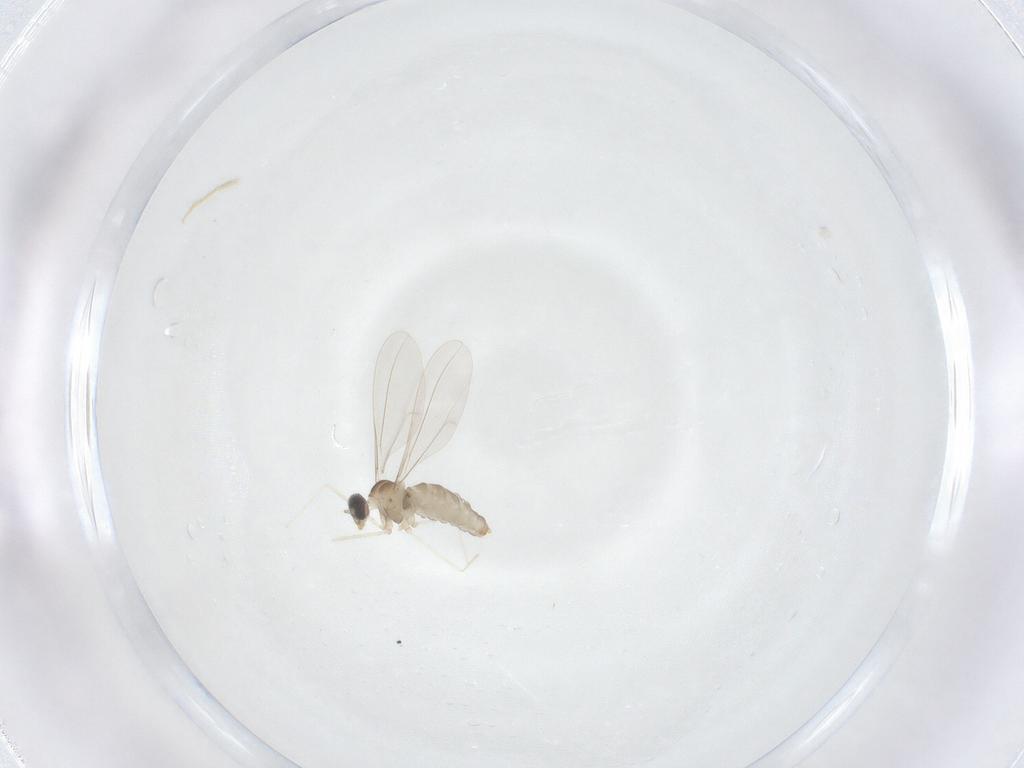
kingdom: Animalia
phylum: Arthropoda
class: Insecta
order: Diptera
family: Cecidomyiidae
